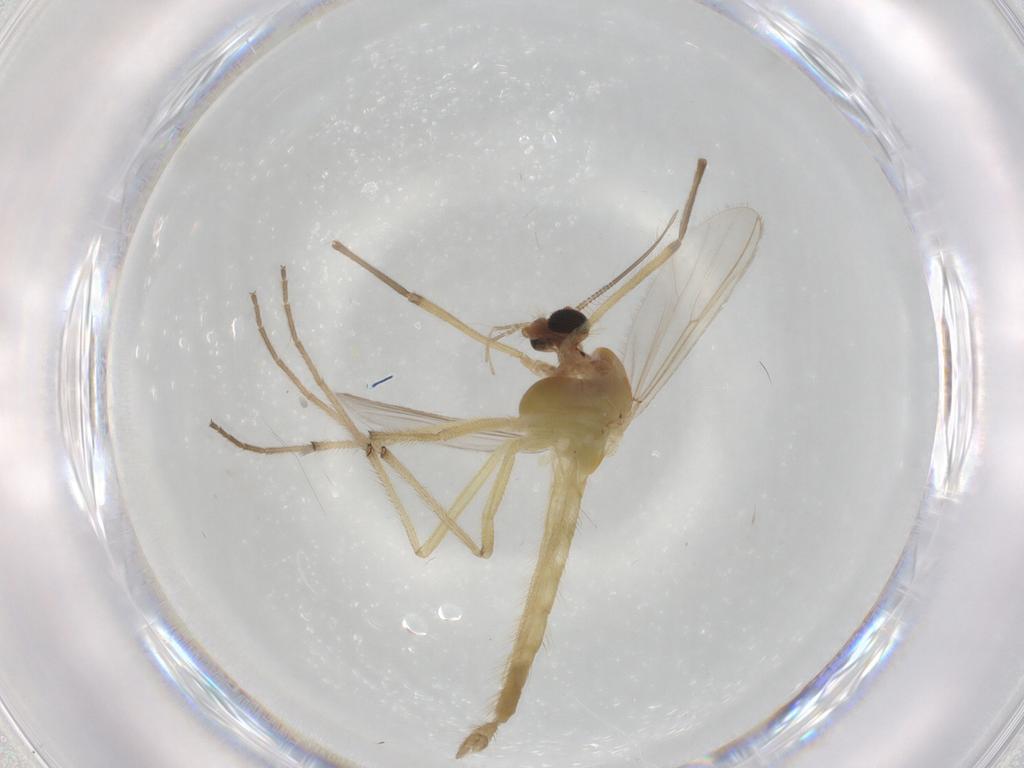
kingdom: Animalia
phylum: Arthropoda
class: Insecta
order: Diptera
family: Chironomidae
